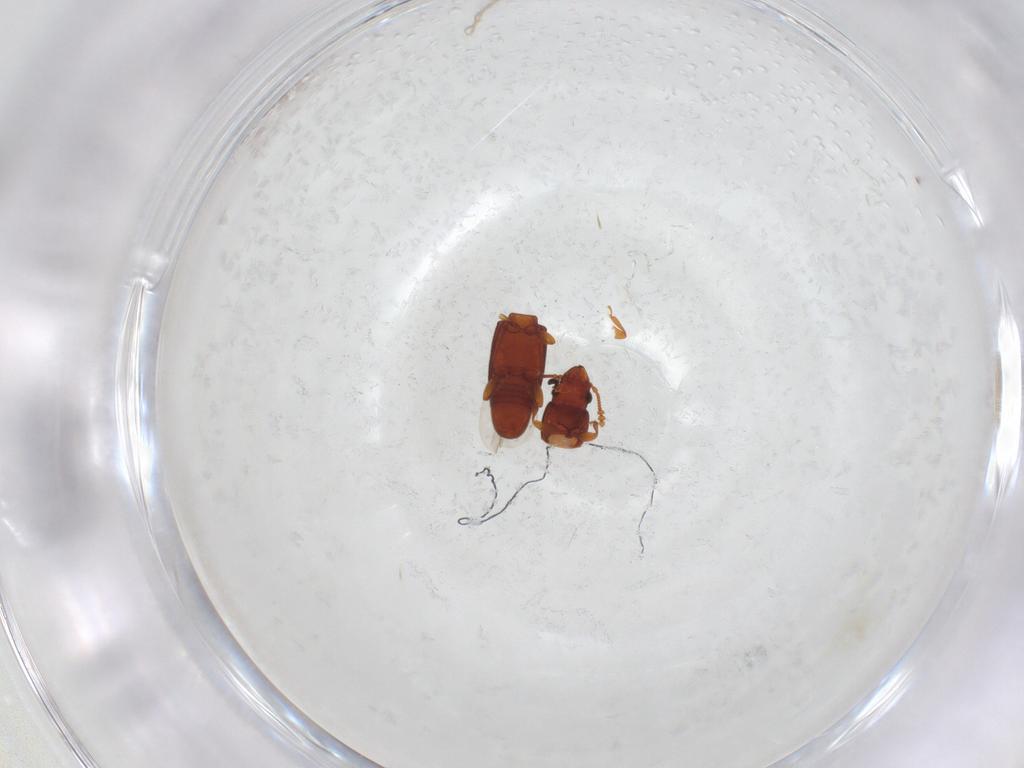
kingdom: Animalia
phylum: Arthropoda
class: Insecta
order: Coleoptera
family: Smicripidae
